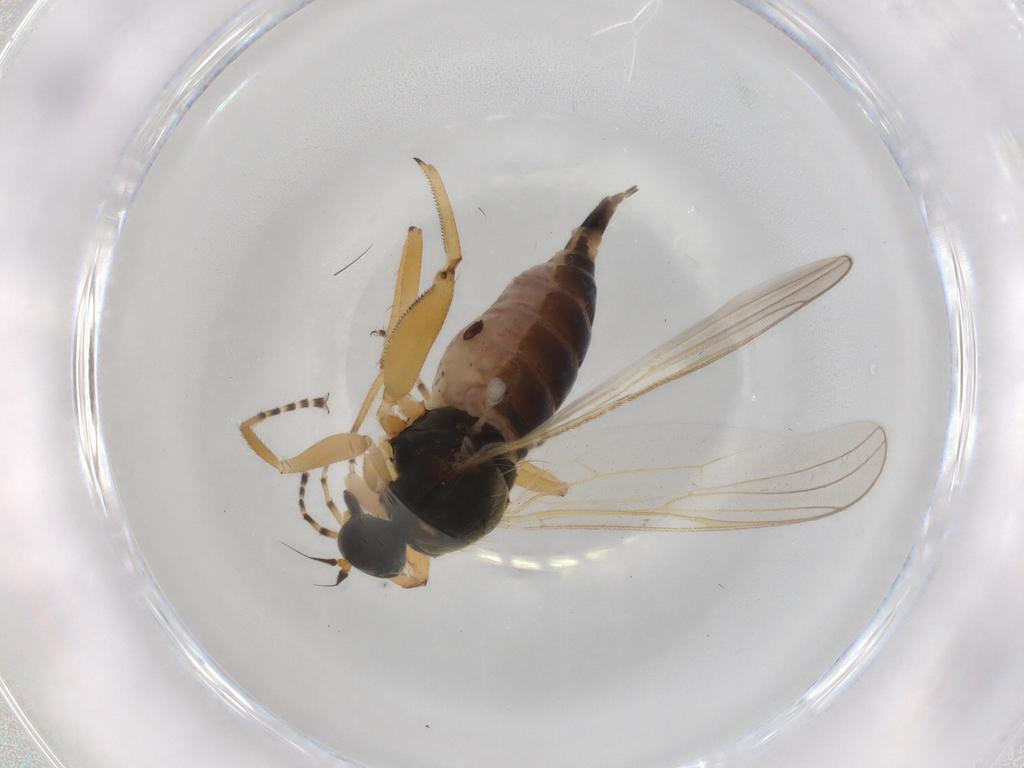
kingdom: Animalia
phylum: Arthropoda
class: Insecta
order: Diptera
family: Hybotidae
